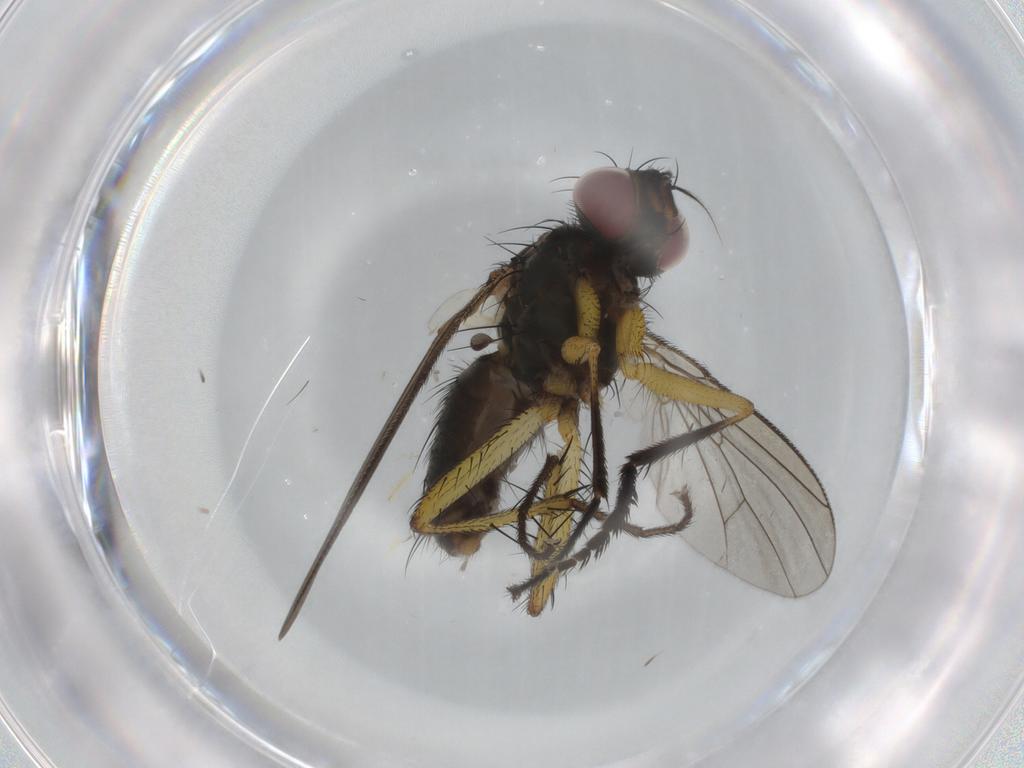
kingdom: Animalia
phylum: Arthropoda
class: Insecta
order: Diptera
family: Muscidae
